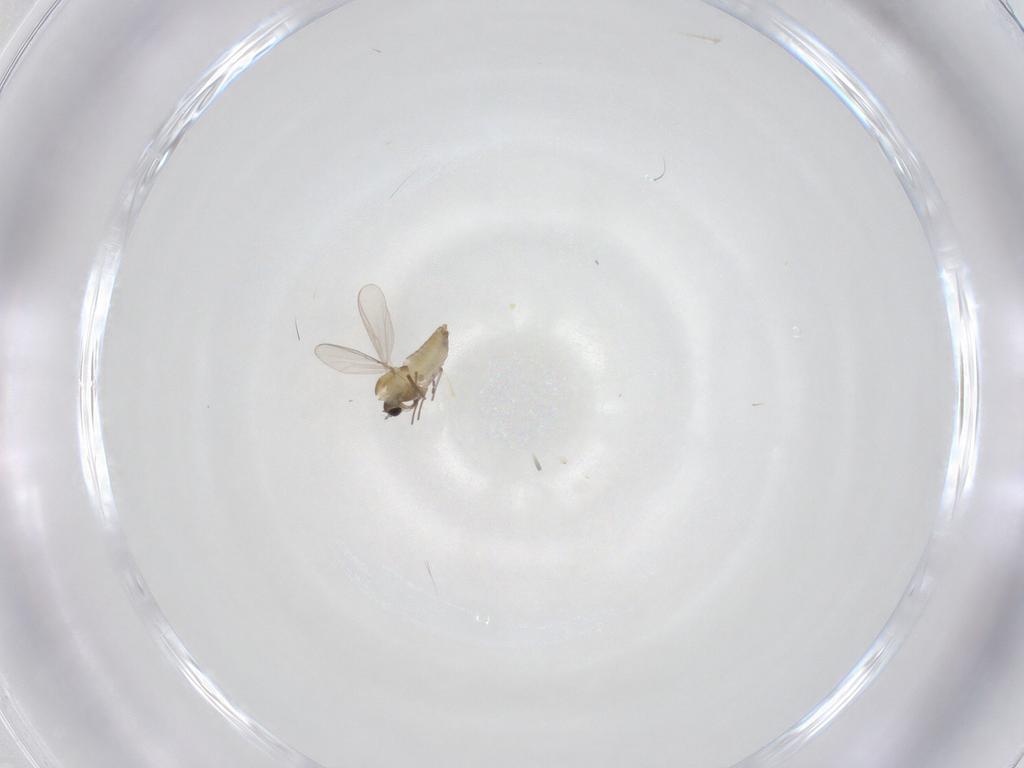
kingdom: Animalia
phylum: Arthropoda
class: Insecta
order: Diptera
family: Chironomidae
